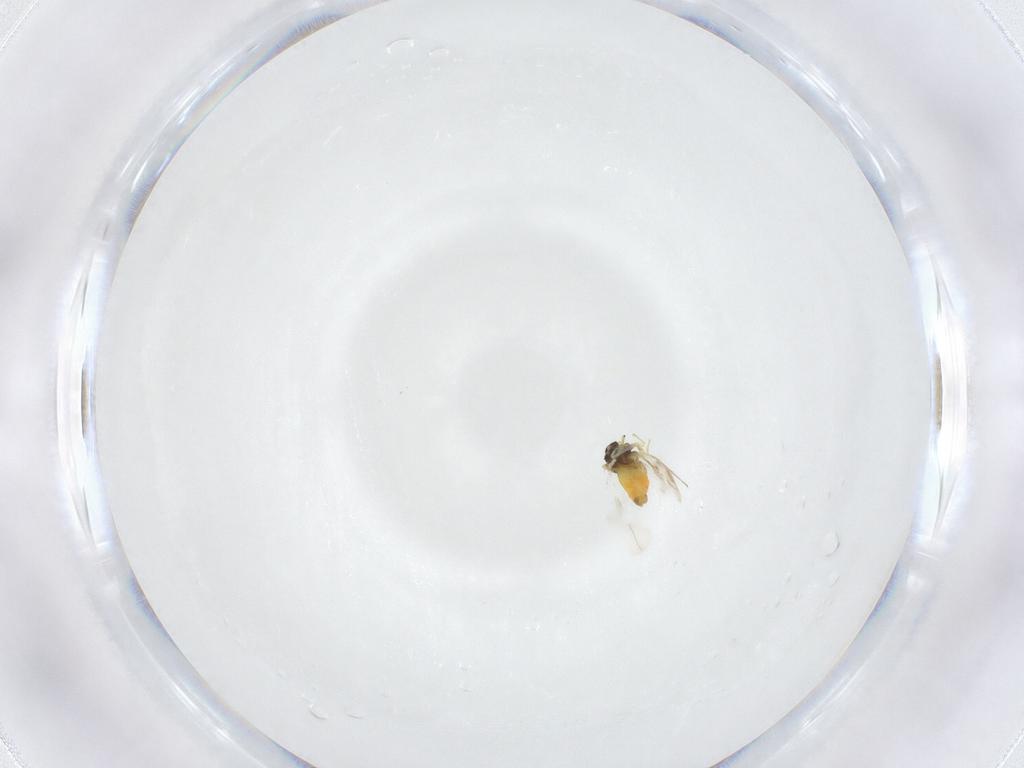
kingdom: Animalia
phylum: Arthropoda
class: Insecta
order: Hemiptera
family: Aleyrodidae
